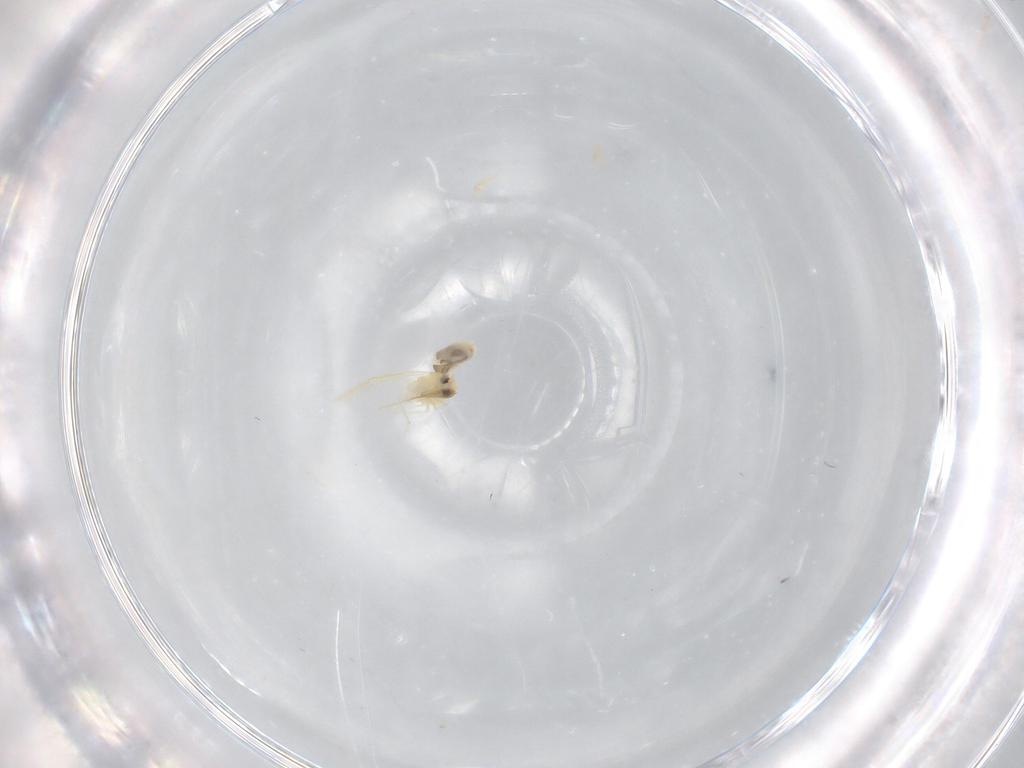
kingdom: Animalia
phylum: Arthropoda
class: Insecta
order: Hemiptera
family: Aleyrodidae
